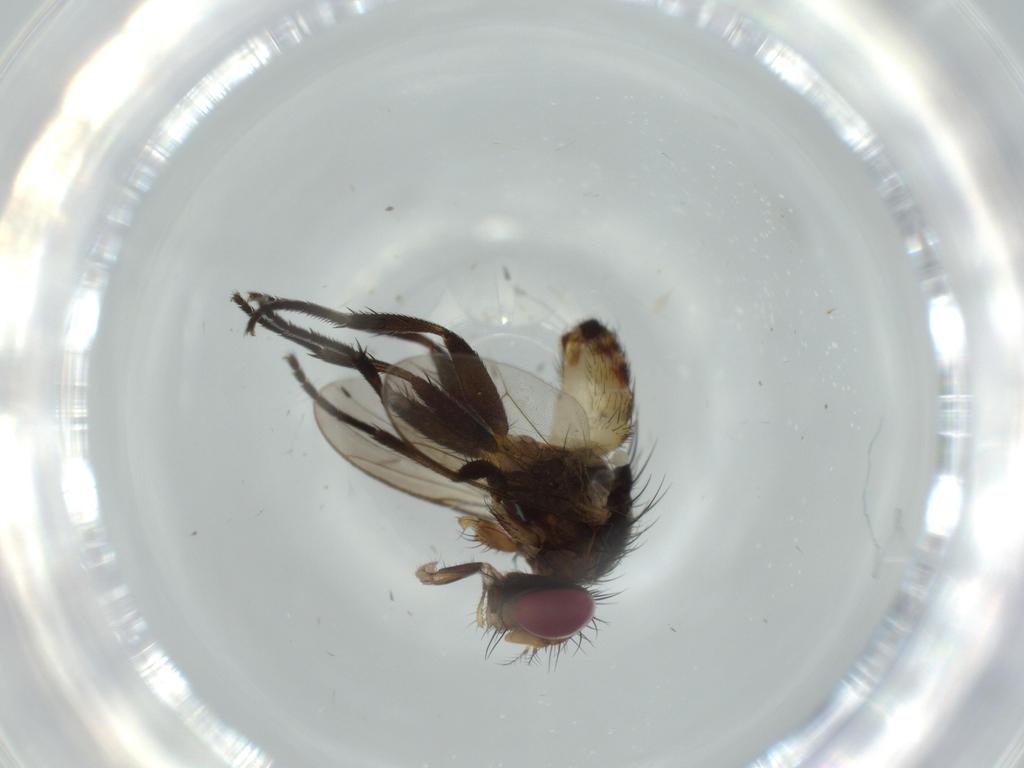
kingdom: Animalia
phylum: Arthropoda
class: Insecta
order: Diptera
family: Anthomyiidae
